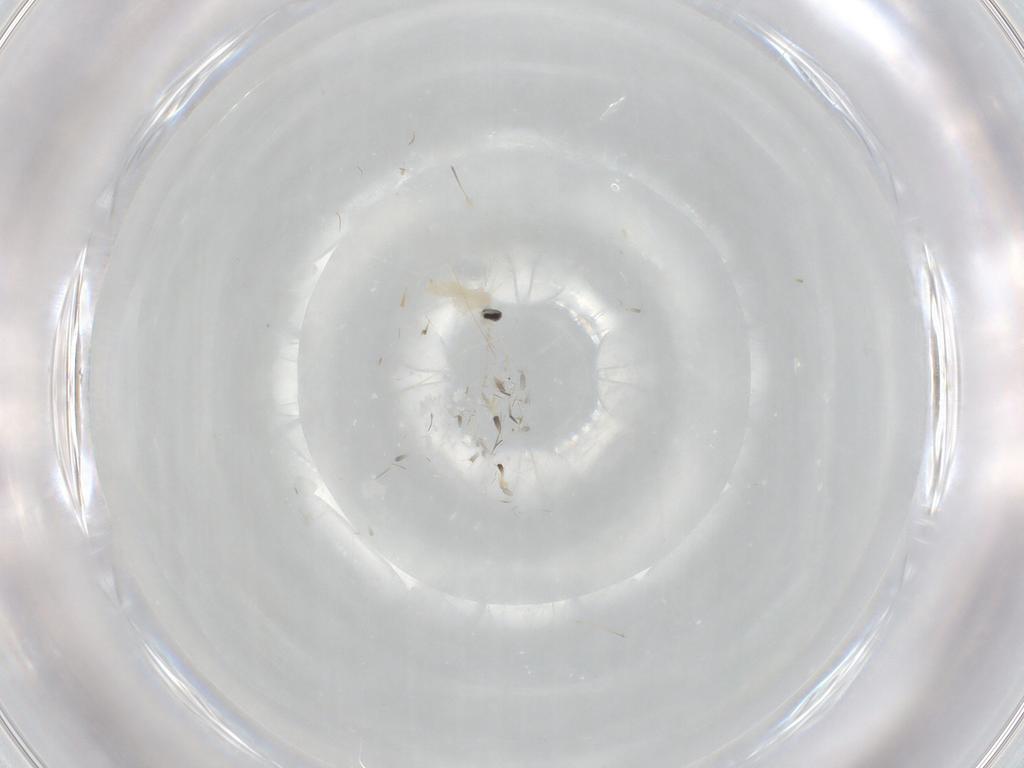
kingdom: Animalia
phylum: Arthropoda
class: Insecta
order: Diptera
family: Cecidomyiidae
